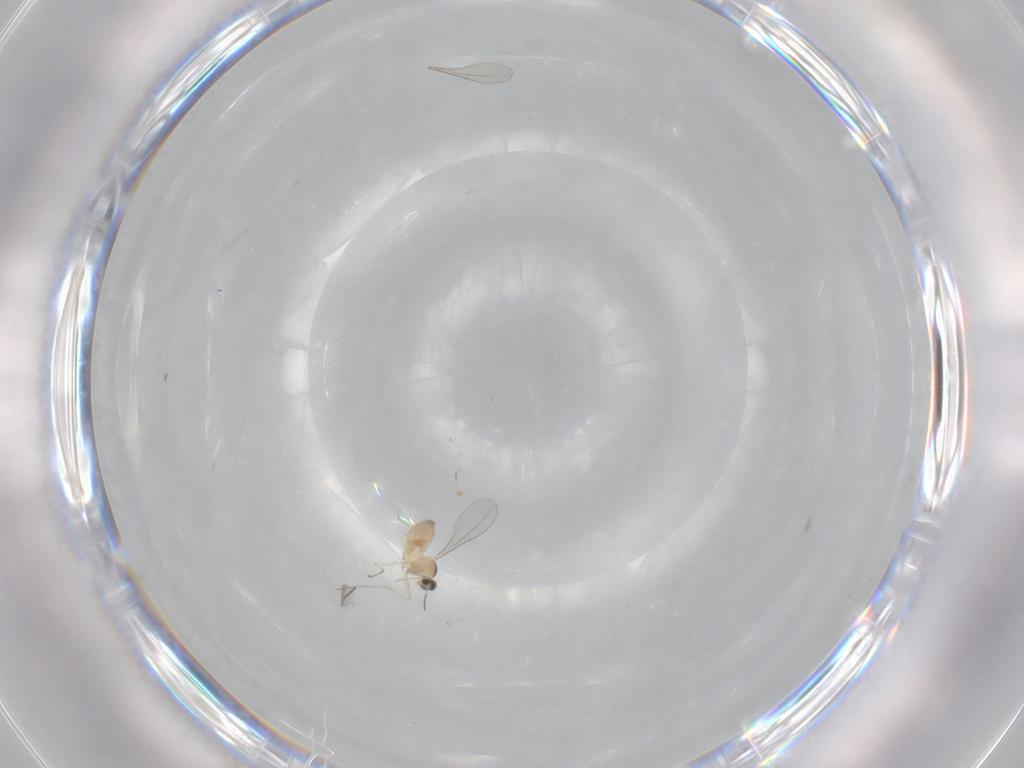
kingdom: Animalia
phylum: Arthropoda
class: Insecta
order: Diptera
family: Cecidomyiidae
